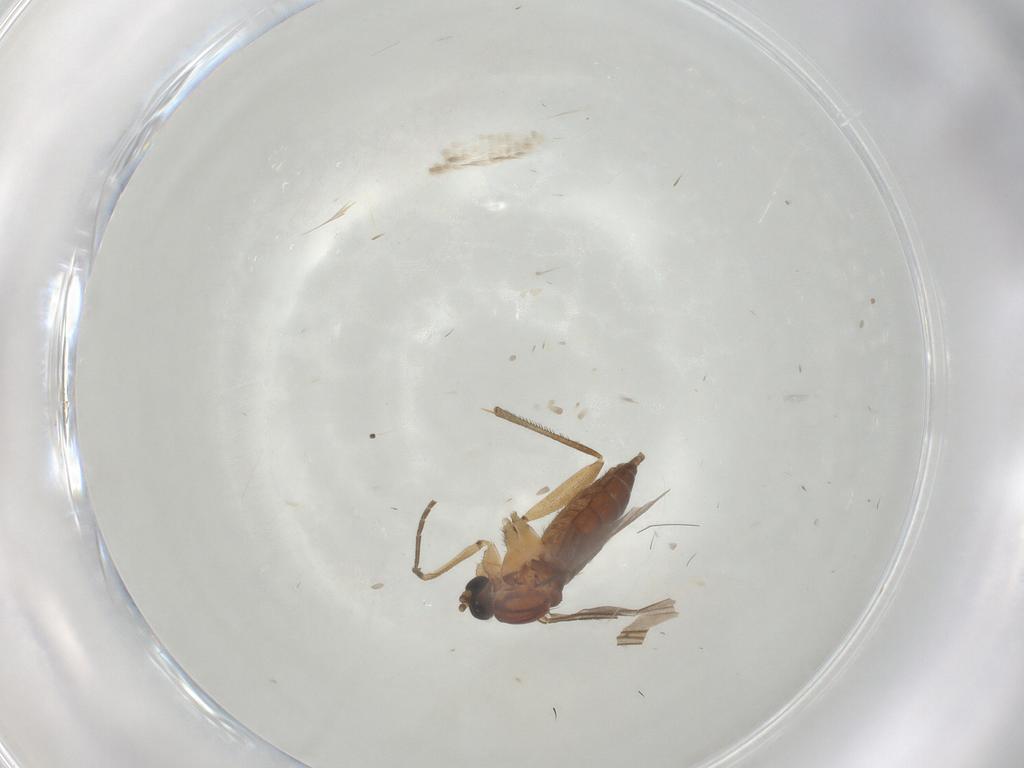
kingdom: Animalia
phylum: Arthropoda
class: Insecta
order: Diptera
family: Sciaridae
